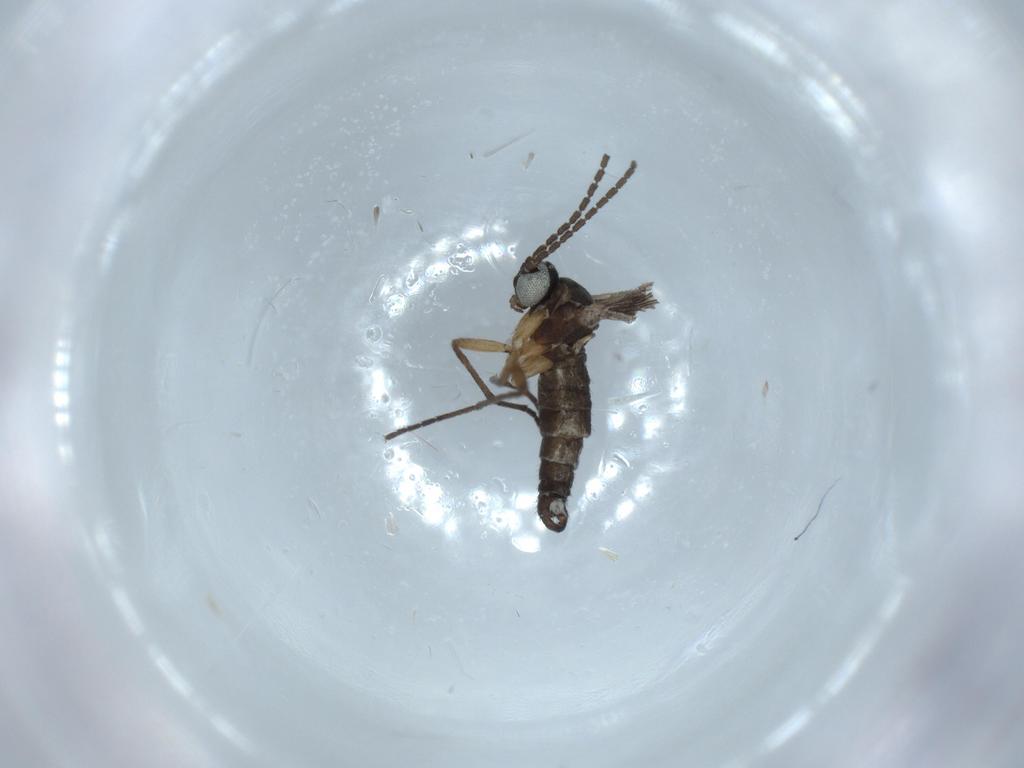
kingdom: Animalia
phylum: Arthropoda
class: Insecta
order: Diptera
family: Sciaridae
